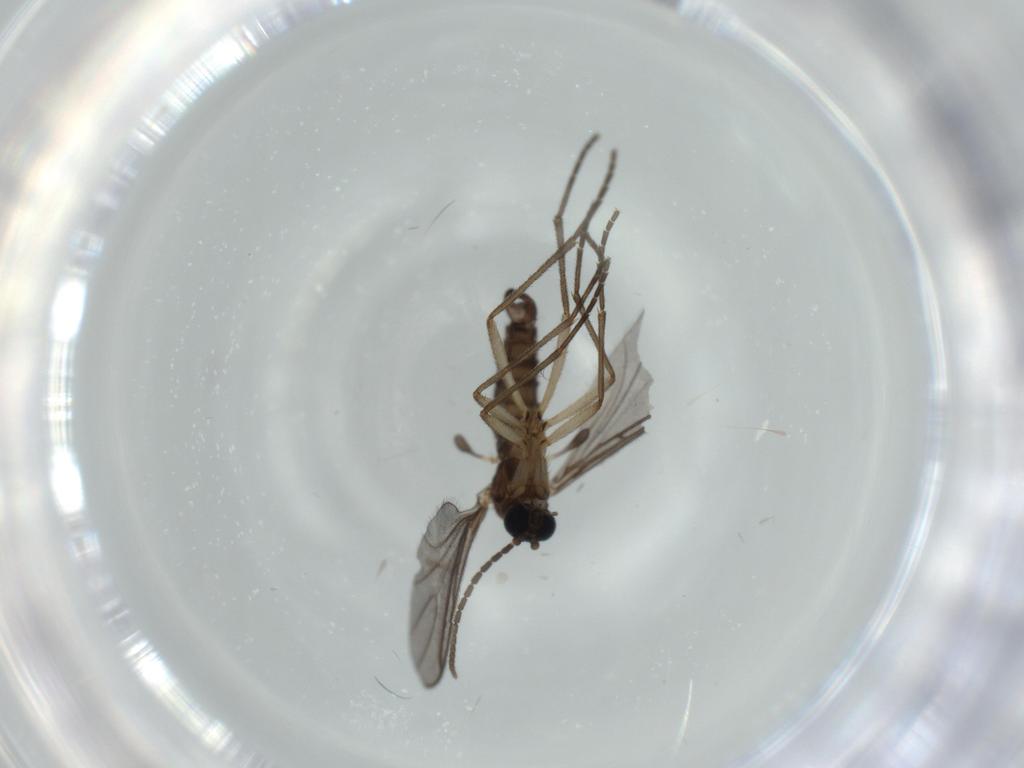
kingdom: Animalia
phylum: Arthropoda
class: Insecta
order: Diptera
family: Sciaridae
